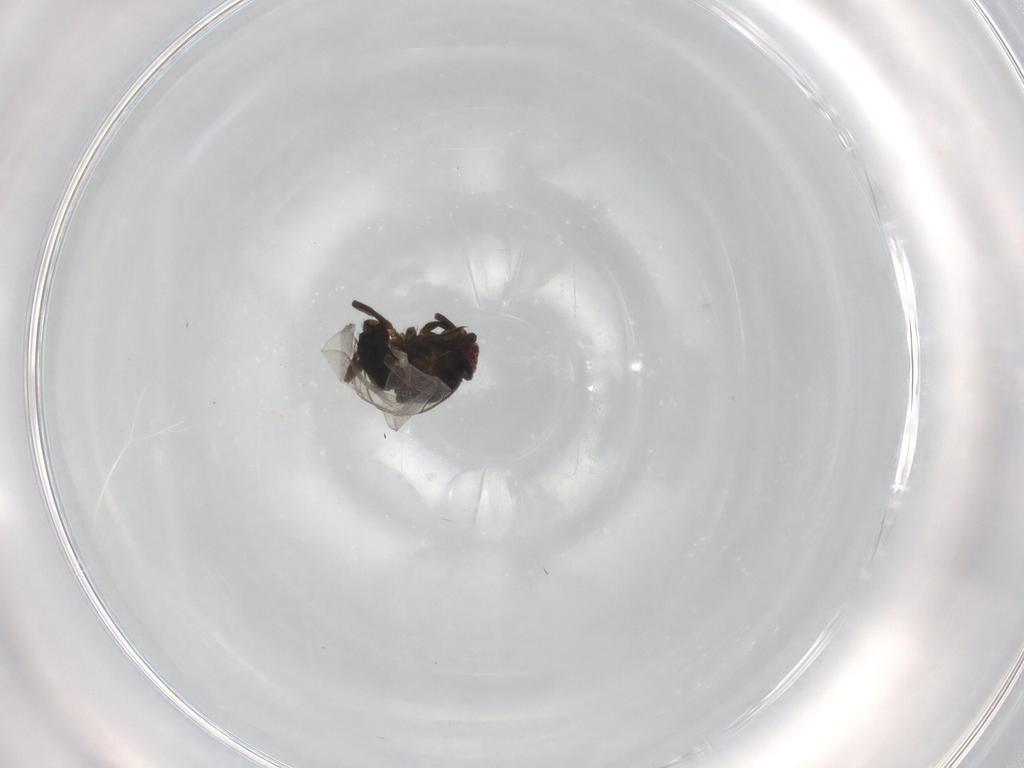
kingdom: Animalia
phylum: Arthropoda
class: Insecta
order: Diptera
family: Agromyzidae
